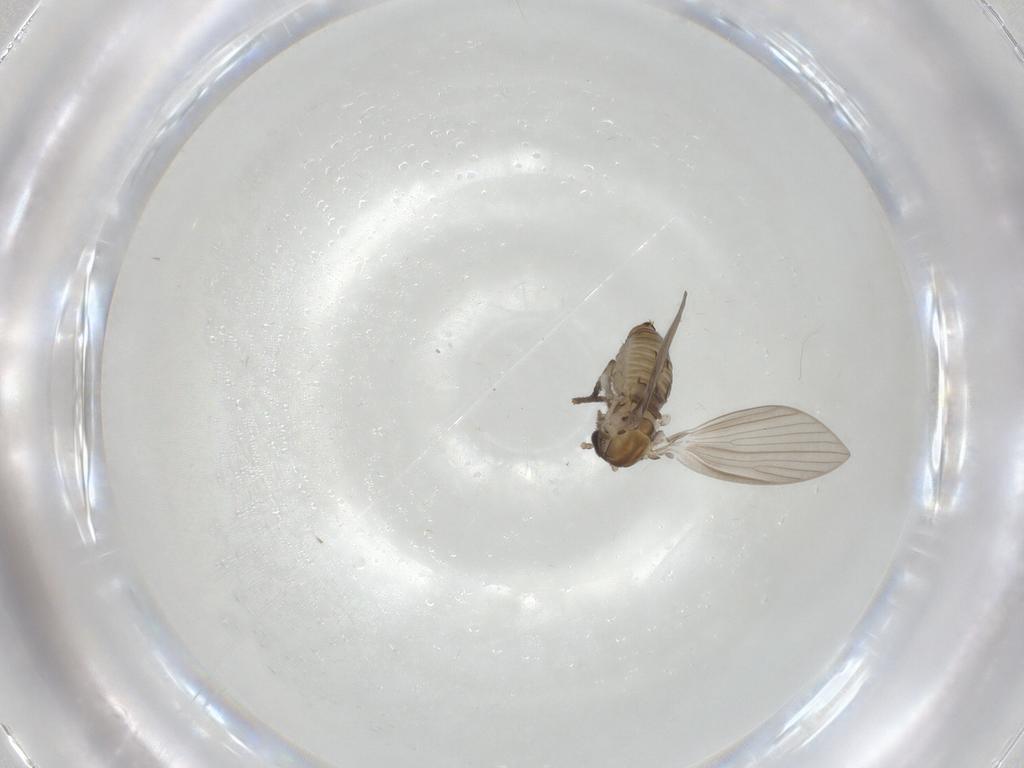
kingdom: Animalia
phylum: Arthropoda
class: Insecta
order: Diptera
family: Psychodidae
